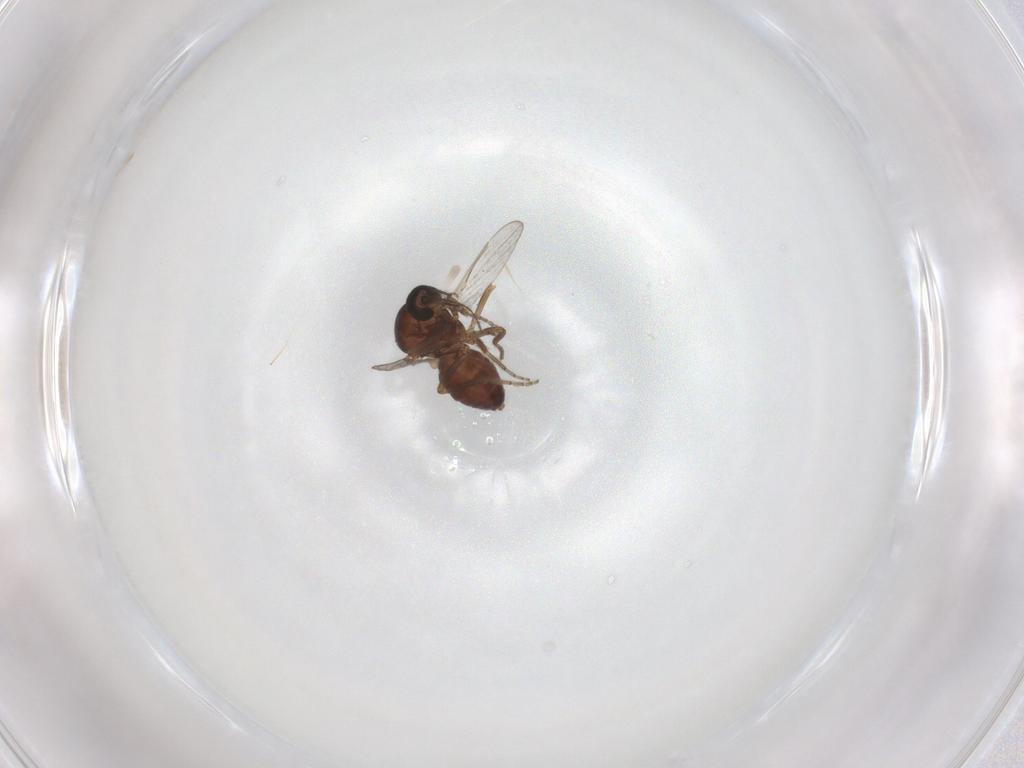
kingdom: Animalia
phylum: Arthropoda
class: Insecta
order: Diptera
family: Ceratopogonidae
